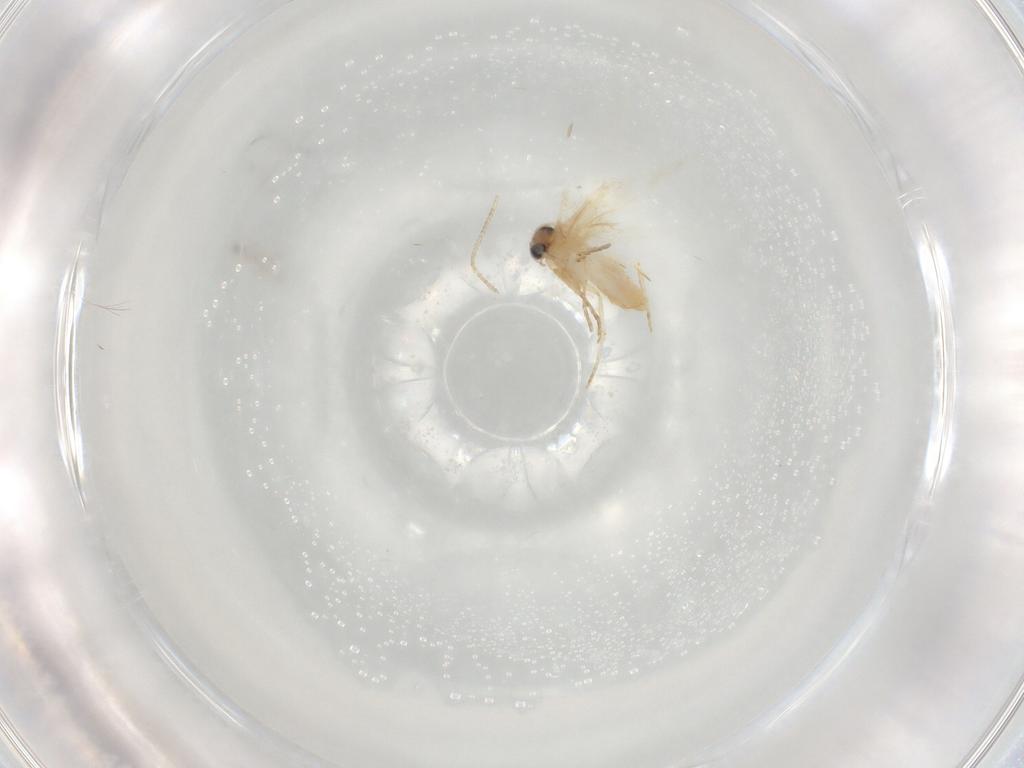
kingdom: Animalia
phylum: Arthropoda
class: Insecta
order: Lepidoptera
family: Nepticulidae
